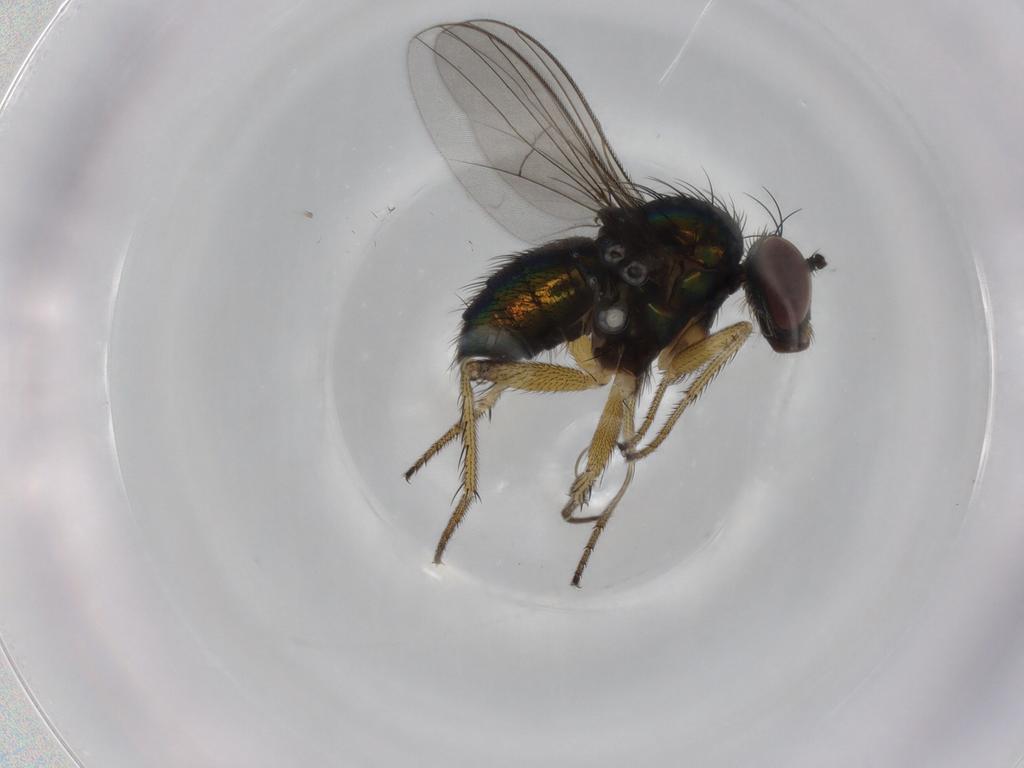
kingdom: Animalia
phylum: Arthropoda
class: Insecta
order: Diptera
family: Dolichopodidae
